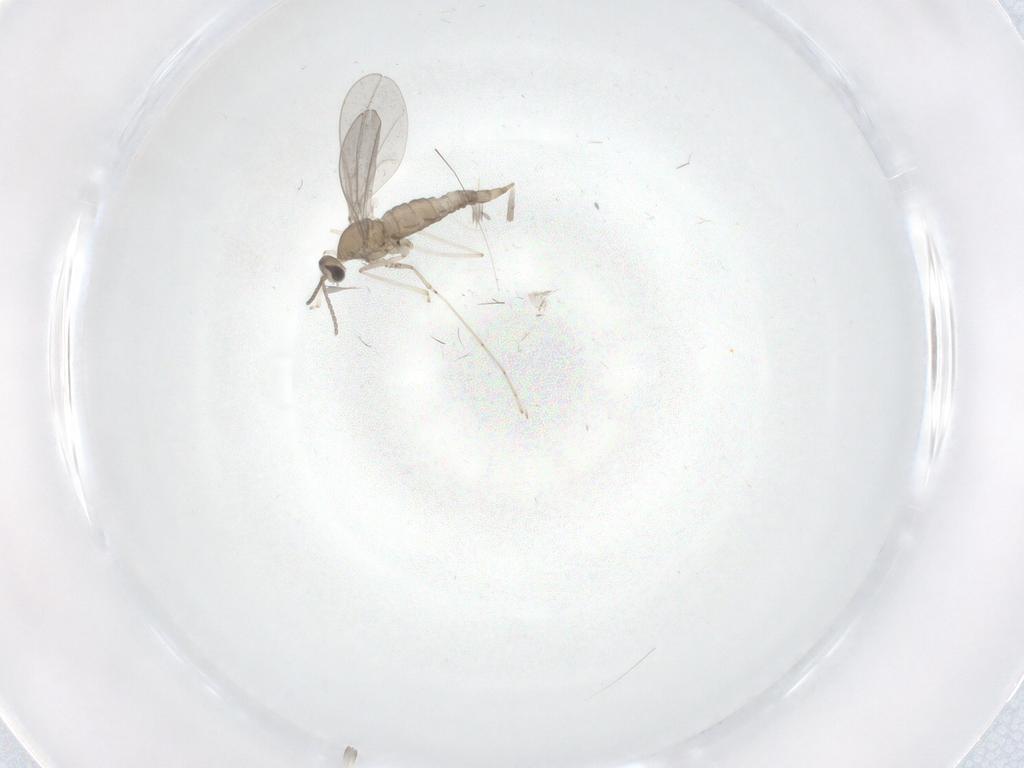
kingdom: Animalia
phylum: Arthropoda
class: Insecta
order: Diptera
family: Cecidomyiidae
